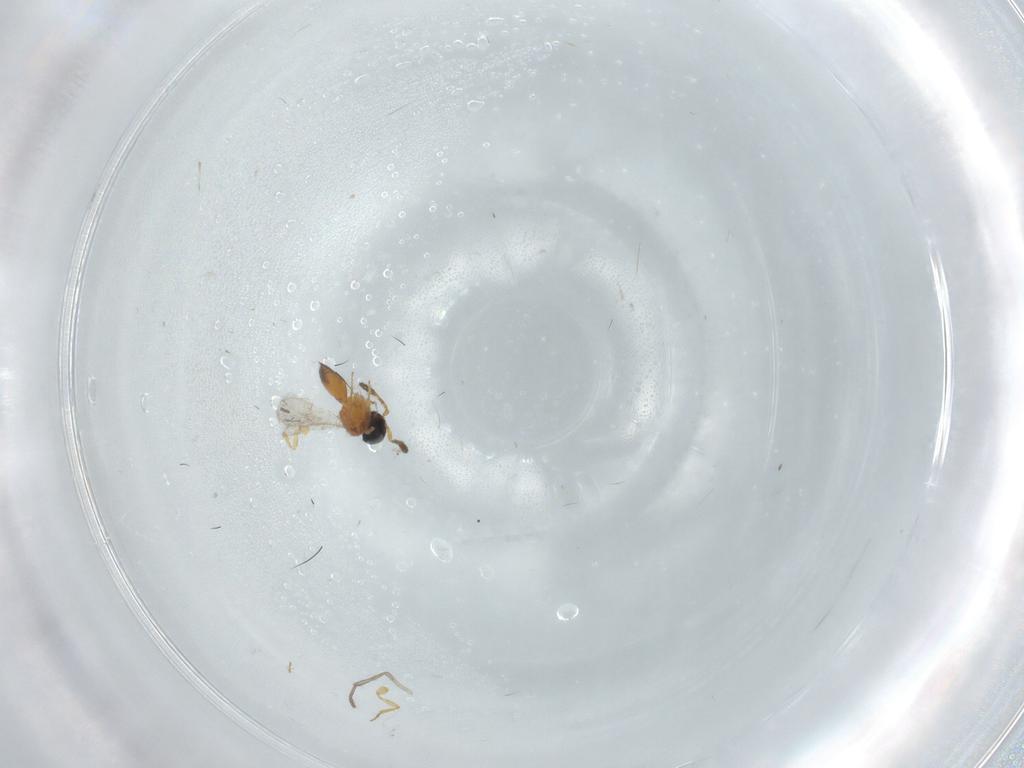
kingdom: Animalia
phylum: Arthropoda
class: Insecta
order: Hymenoptera
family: Scelionidae
